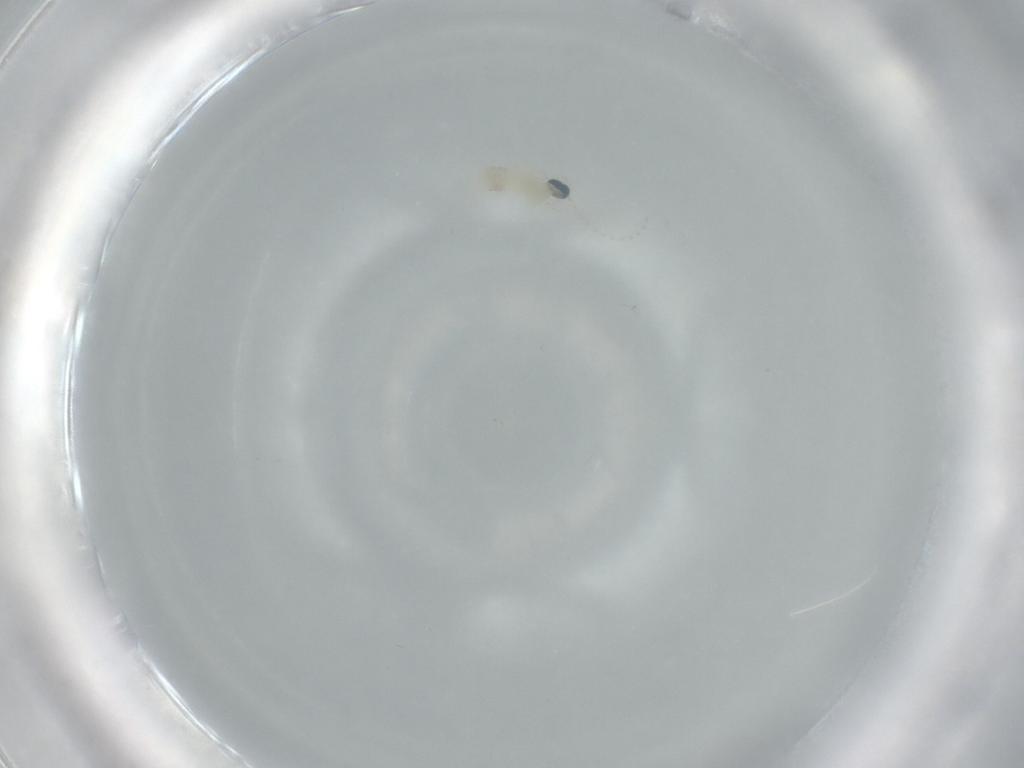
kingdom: Animalia
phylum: Arthropoda
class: Insecta
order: Diptera
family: Cecidomyiidae
